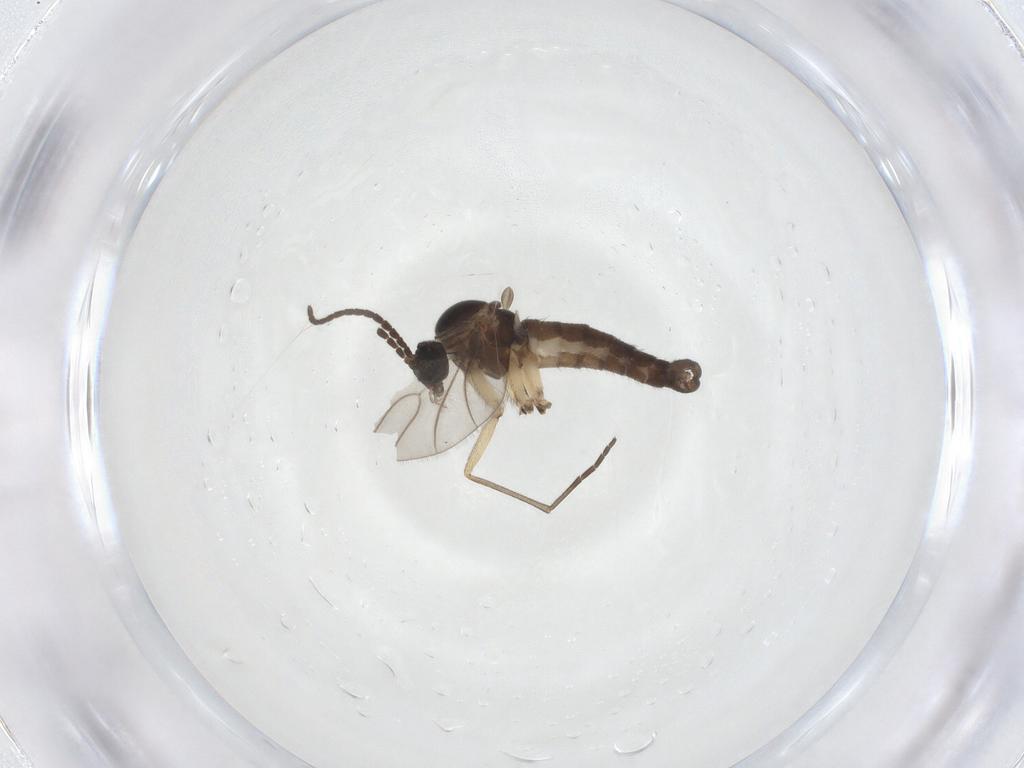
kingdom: Animalia
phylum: Arthropoda
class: Insecta
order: Diptera
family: Sciaridae
